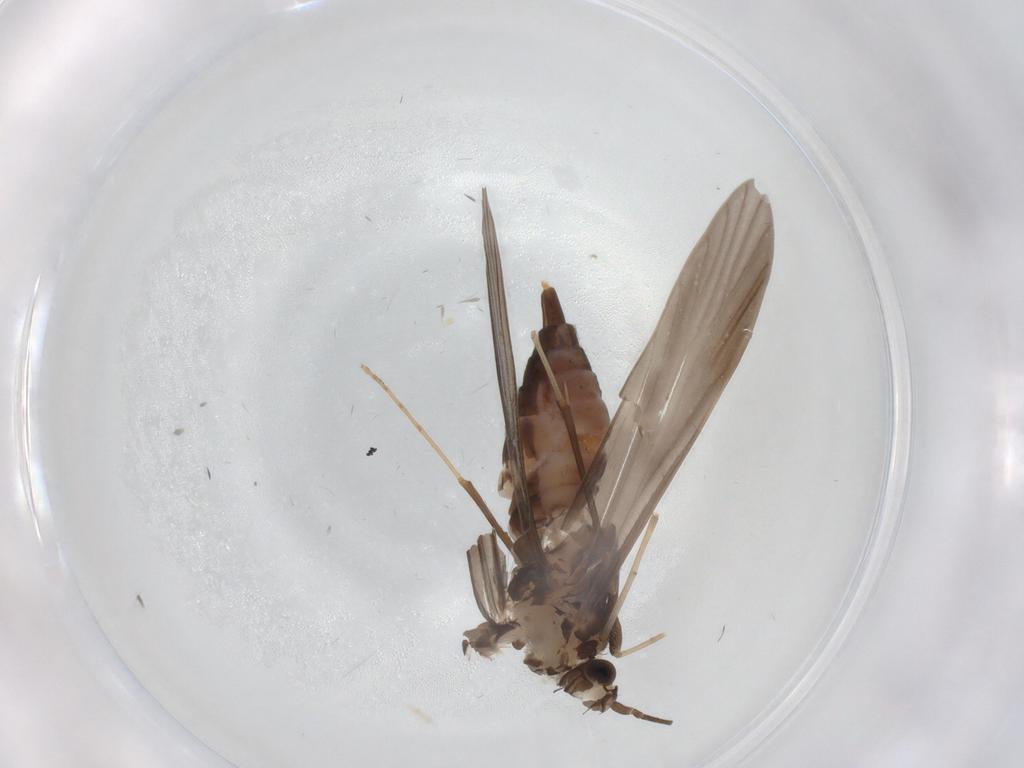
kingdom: Animalia
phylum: Arthropoda
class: Insecta
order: Trichoptera
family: Xiphocentronidae
